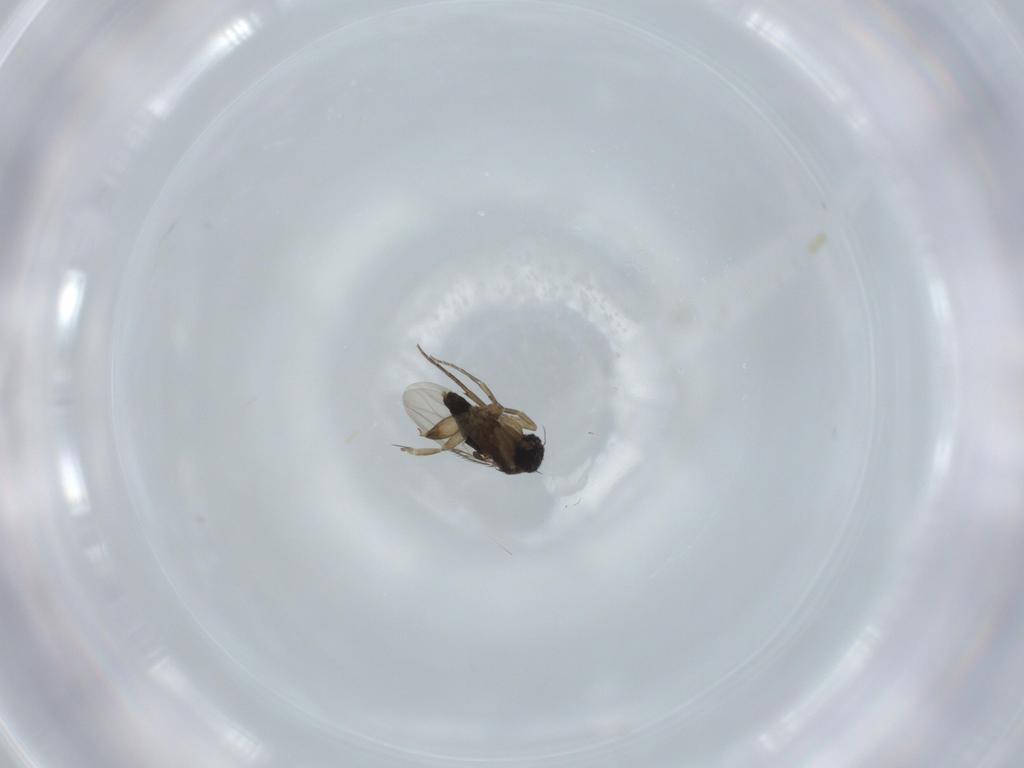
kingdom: Animalia
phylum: Arthropoda
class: Insecta
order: Diptera
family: Phoridae
